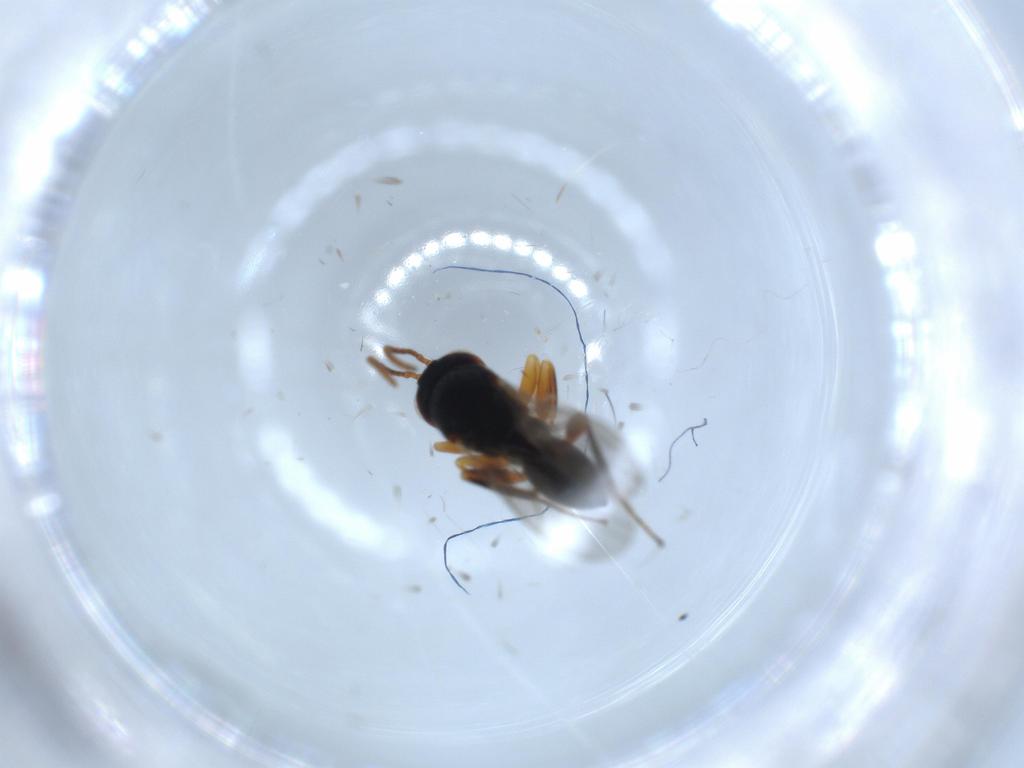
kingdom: Animalia
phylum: Arthropoda
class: Insecta
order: Hymenoptera
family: Cynipidae
